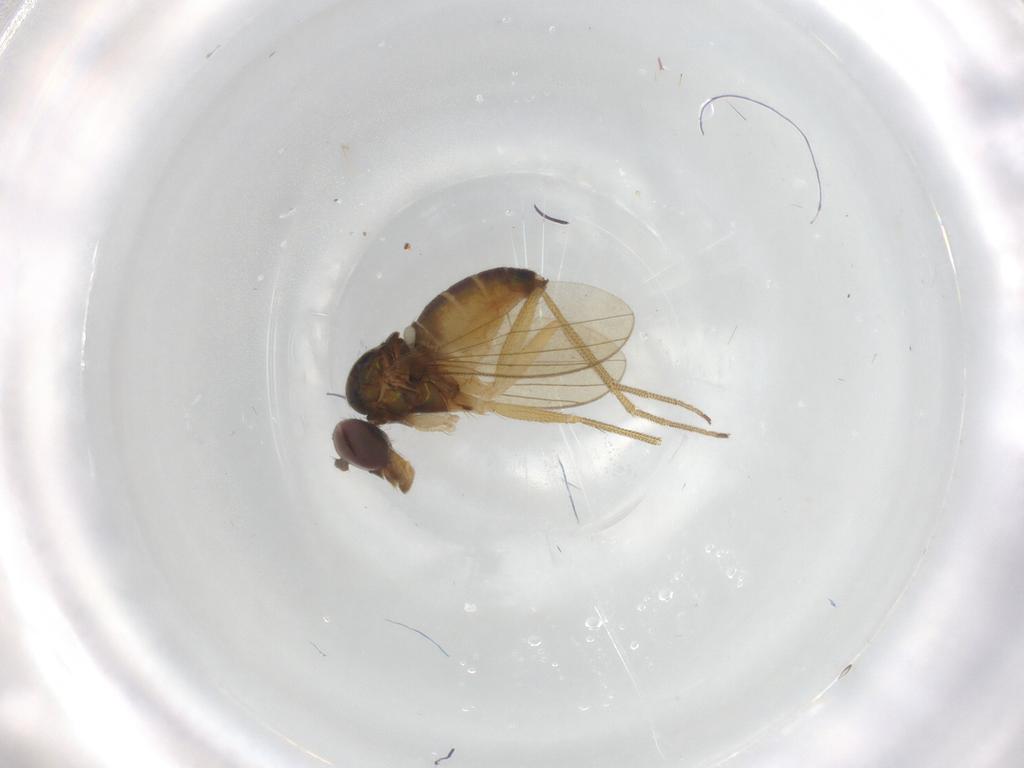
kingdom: Animalia
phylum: Arthropoda
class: Insecta
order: Diptera
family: Dolichopodidae
